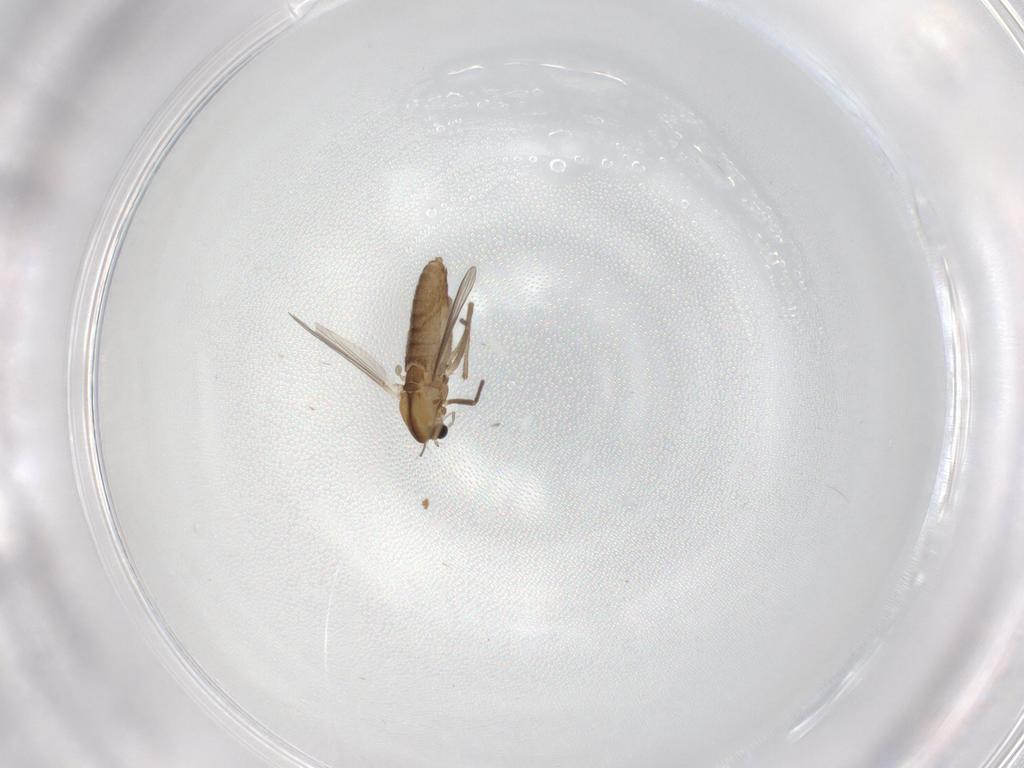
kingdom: Animalia
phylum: Arthropoda
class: Insecta
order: Diptera
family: Chironomidae
